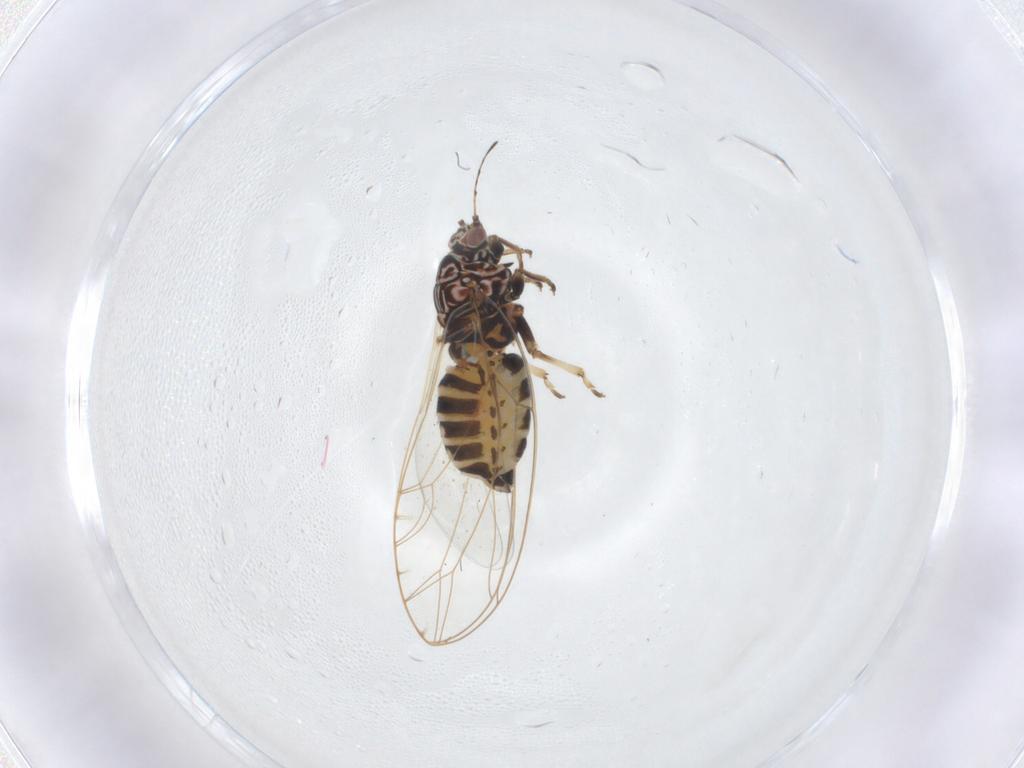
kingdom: Animalia
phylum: Arthropoda
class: Insecta
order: Hemiptera
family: Triozidae
